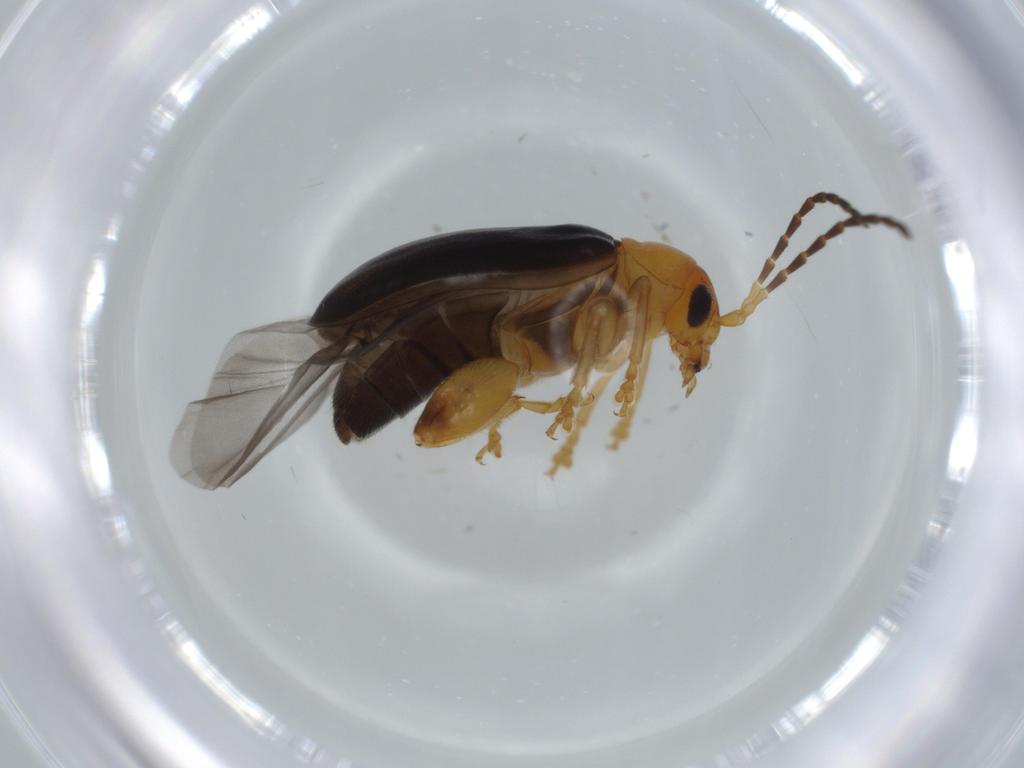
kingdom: Animalia
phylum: Arthropoda
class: Insecta
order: Coleoptera
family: Chrysomelidae
